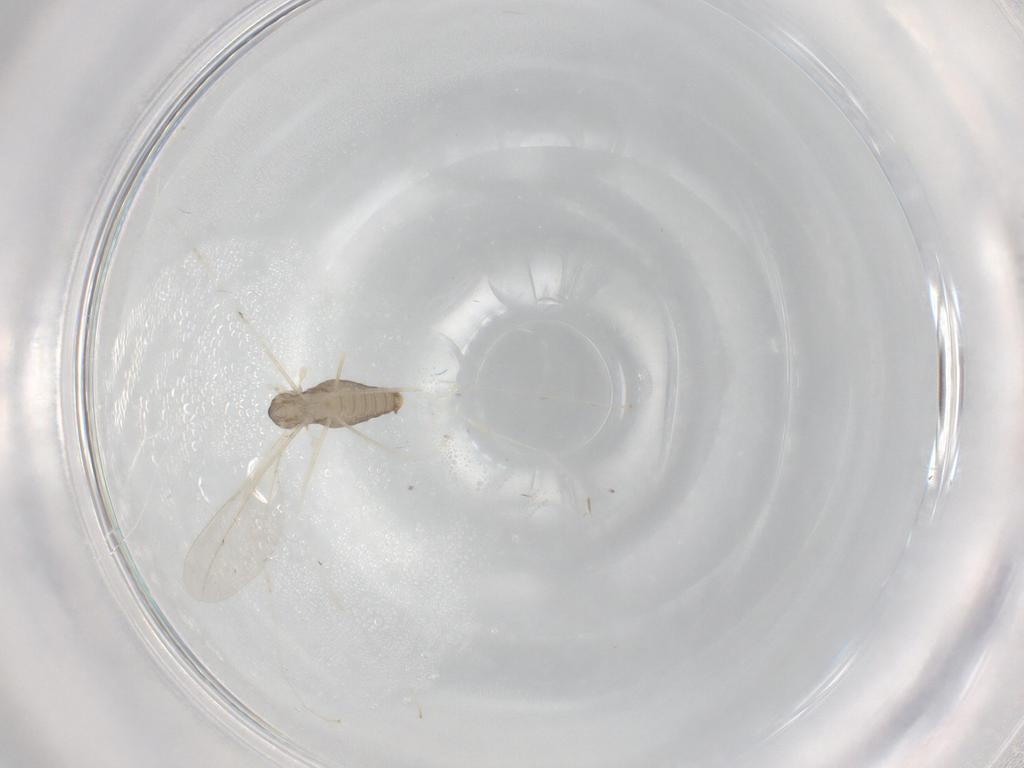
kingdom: Animalia
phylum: Arthropoda
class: Insecta
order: Diptera
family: Cecidomyiidae
